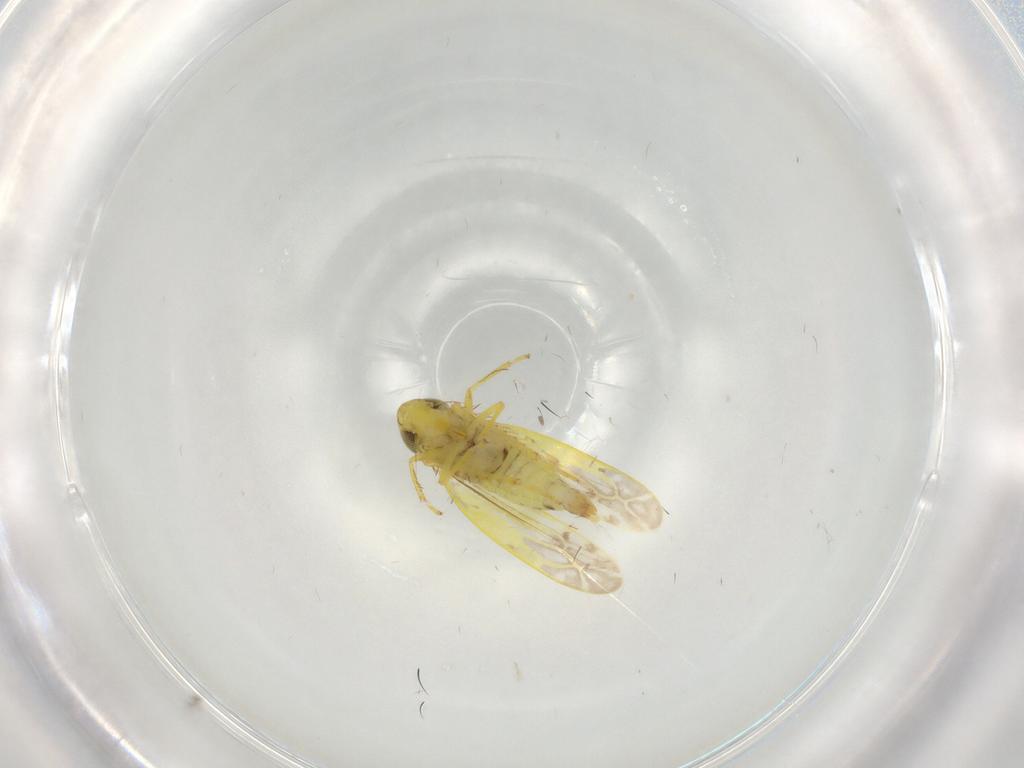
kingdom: Animalia
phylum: Arthropoda
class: Insecta
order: Hemiptera
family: Cicadellidae
